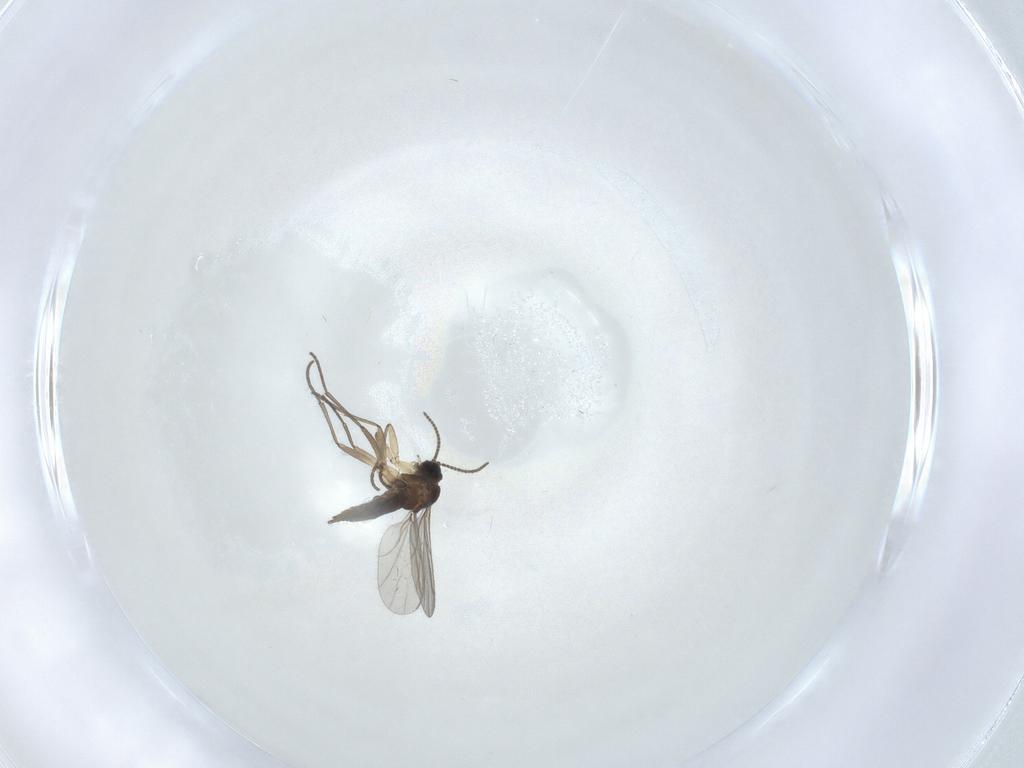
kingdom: Animalia
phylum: Arthropoda
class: Insecta
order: Diptera
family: Sciaridae
